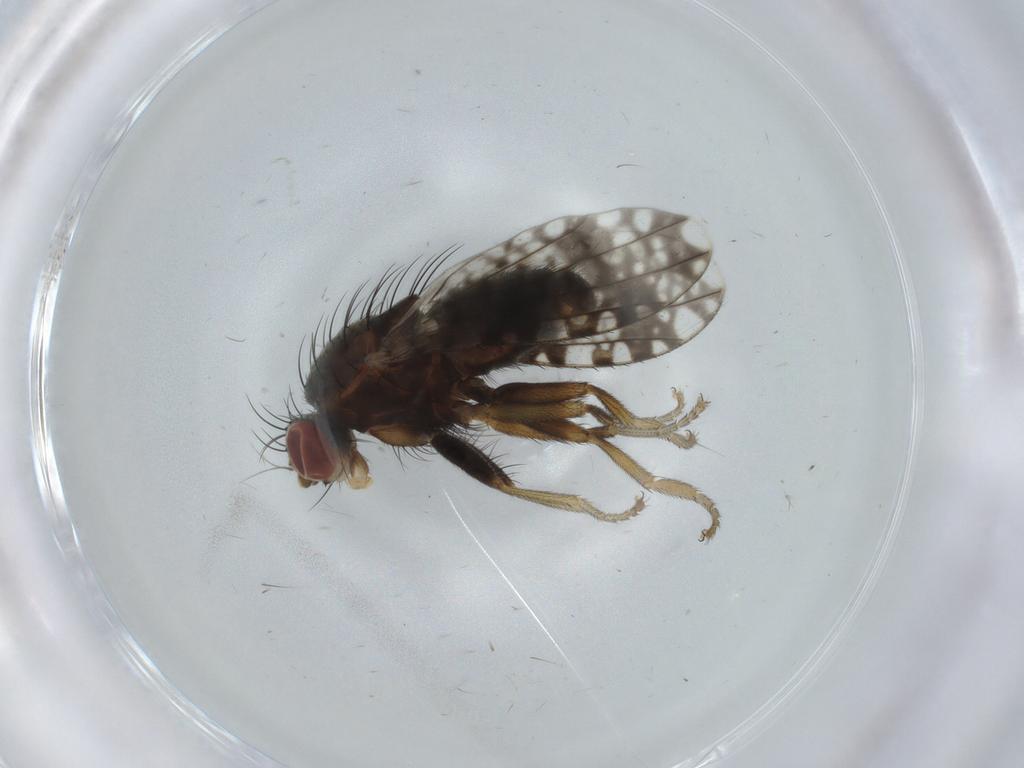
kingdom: Animalia
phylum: Arthropoda
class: Insecta
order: Diptera
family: Tephritidae
